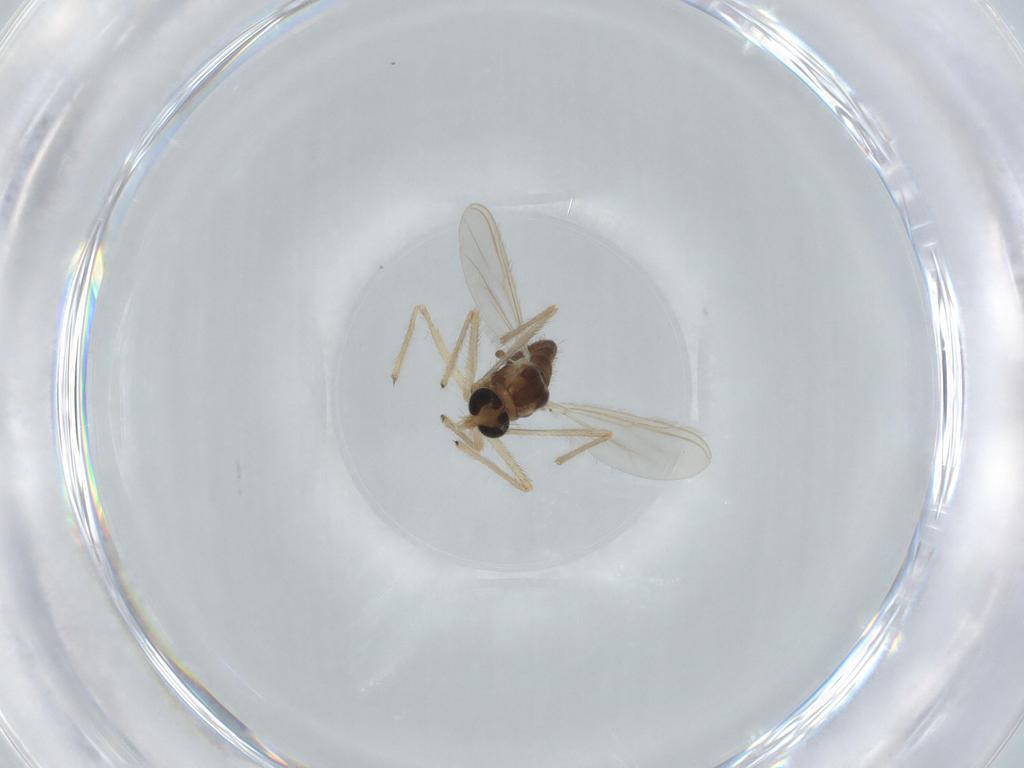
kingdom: Animalia
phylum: Arthropoda
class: Insecta
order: Diptera
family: Chironomidae
